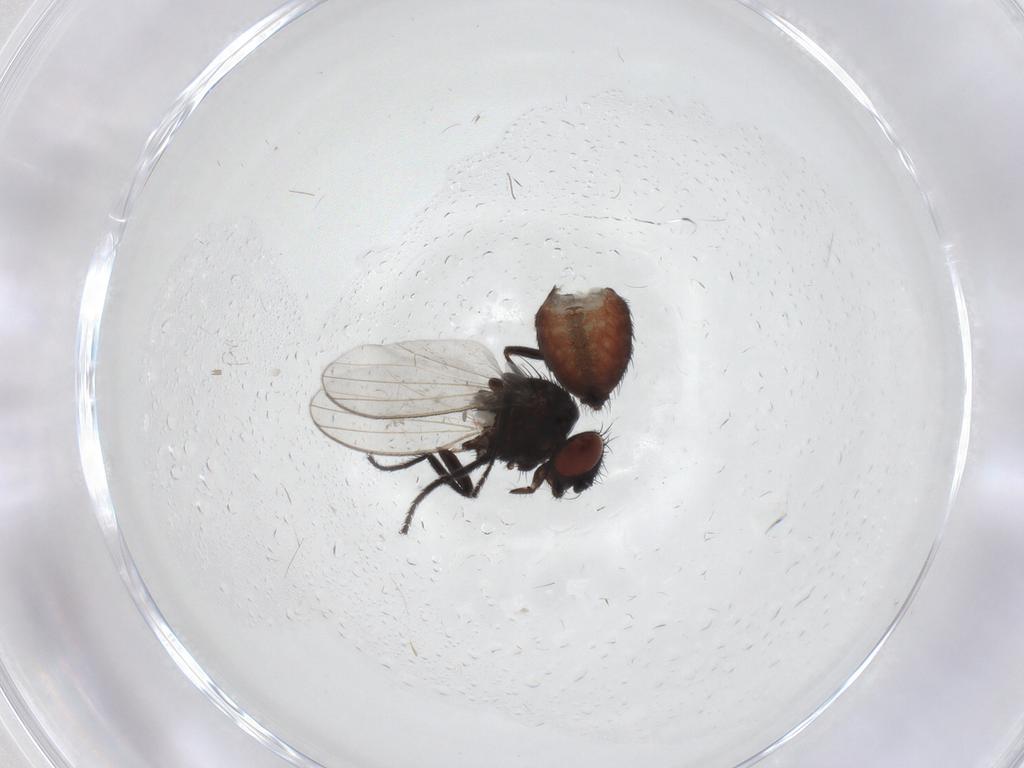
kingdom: Animalia
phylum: Arthropoda
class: Insecta
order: Diptera
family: Milichiidae
